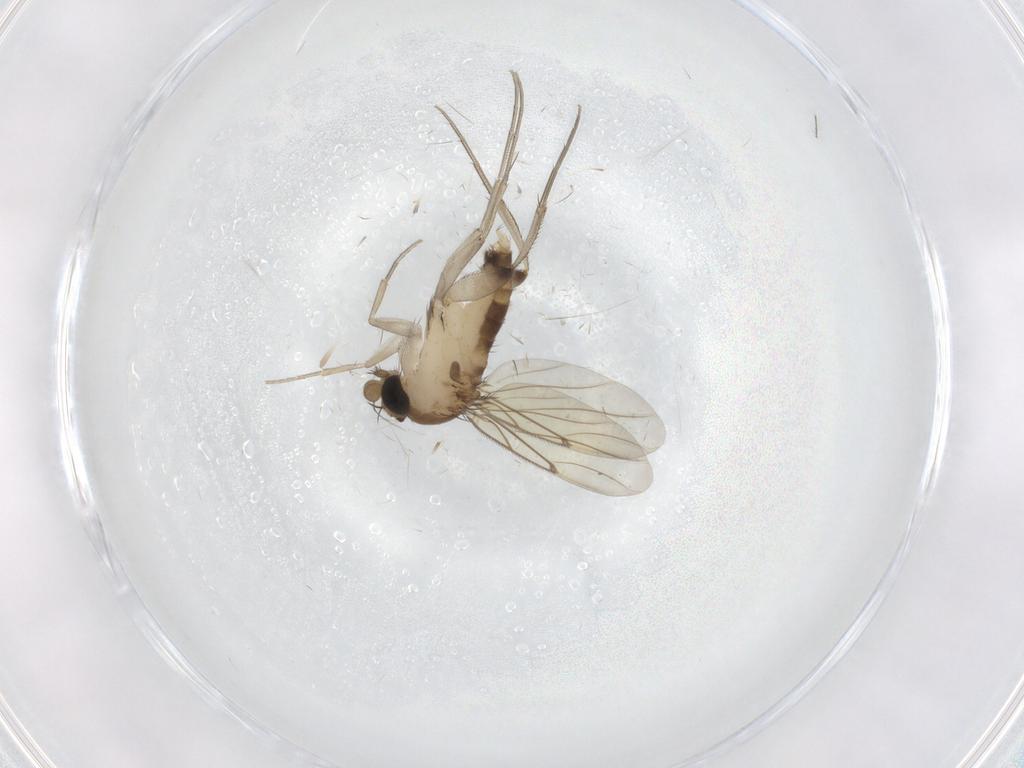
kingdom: Animalia
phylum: Arthropoda
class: Insecta
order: Diptera
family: Phoridae
